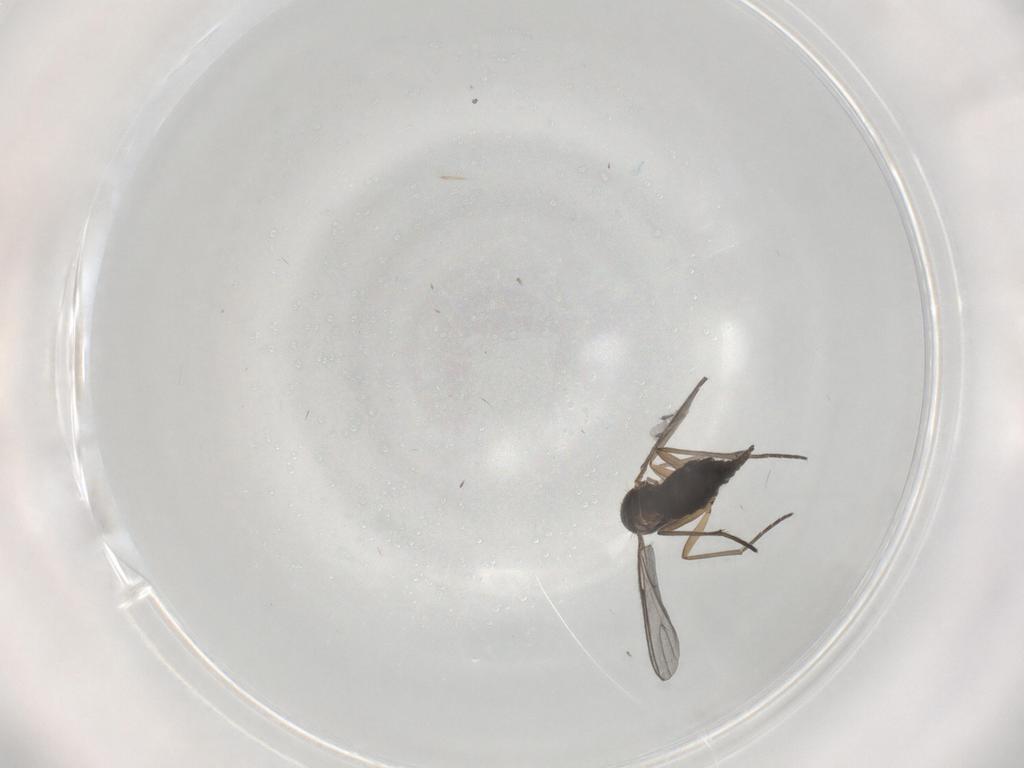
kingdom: Animalia
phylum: Arthropoda
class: Insecta
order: Diptera
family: Sciaridae
